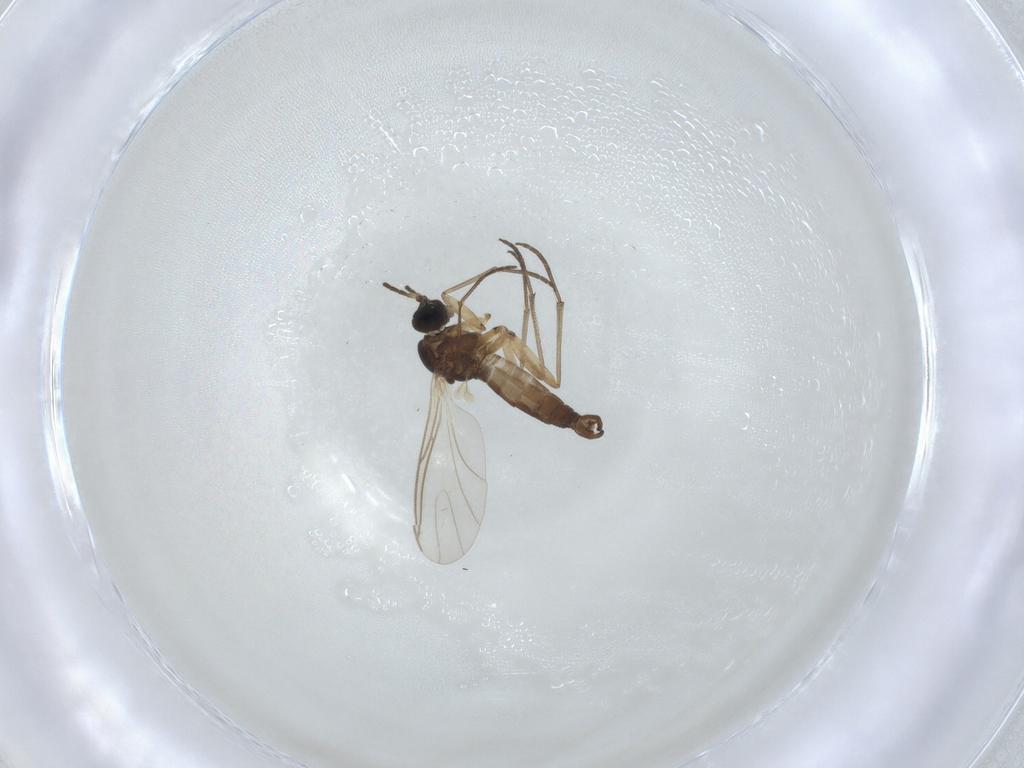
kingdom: Animalia
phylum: Arthropoda
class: Insecta
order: Diptera
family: Sciaridae
